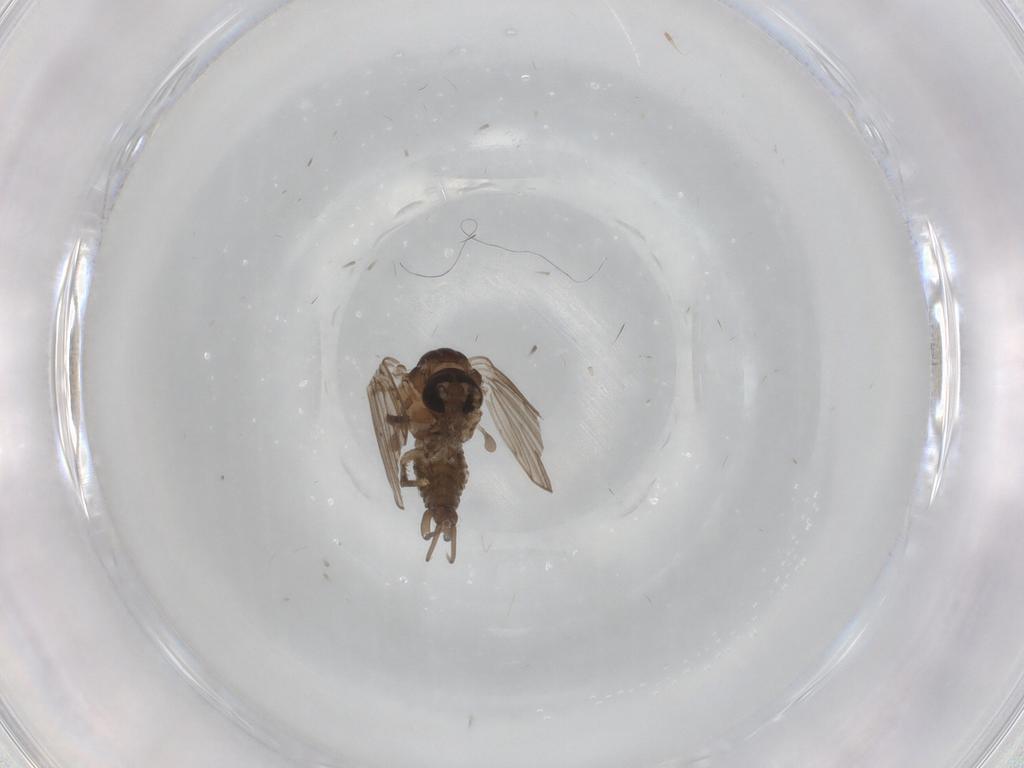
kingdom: Animalia
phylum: Arthropoda
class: Insecta
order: Diptera
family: Psychodidae
